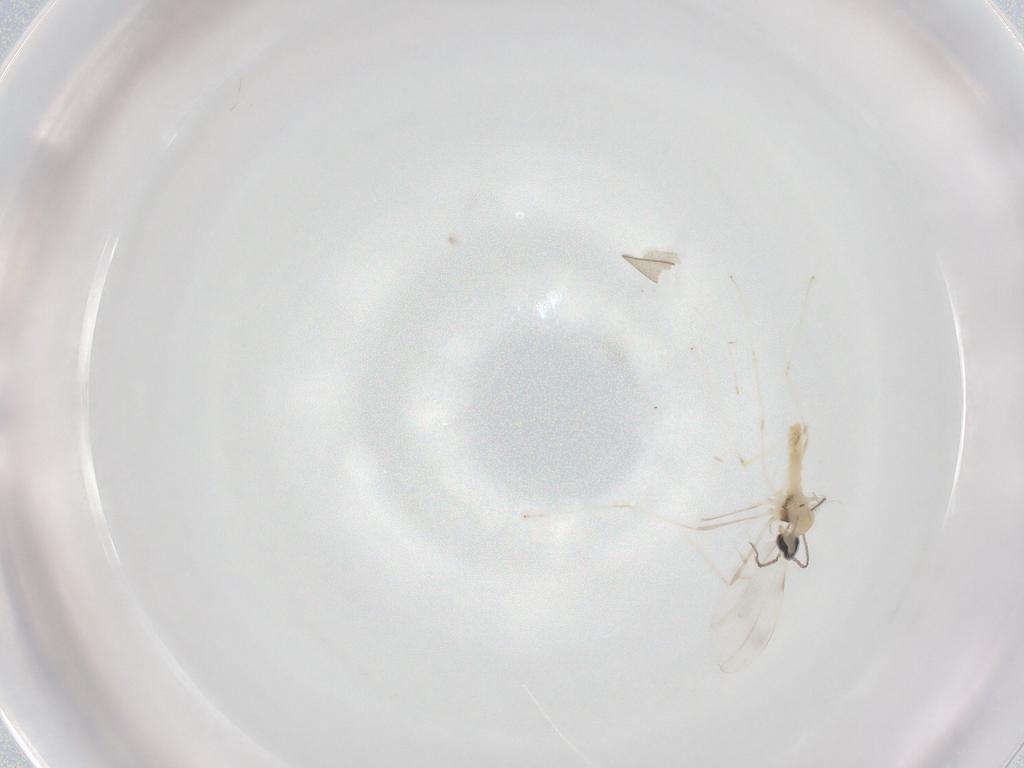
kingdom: Animalia
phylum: Arthropoda
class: Insecta
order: Diptera
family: Cecidomyiidae
